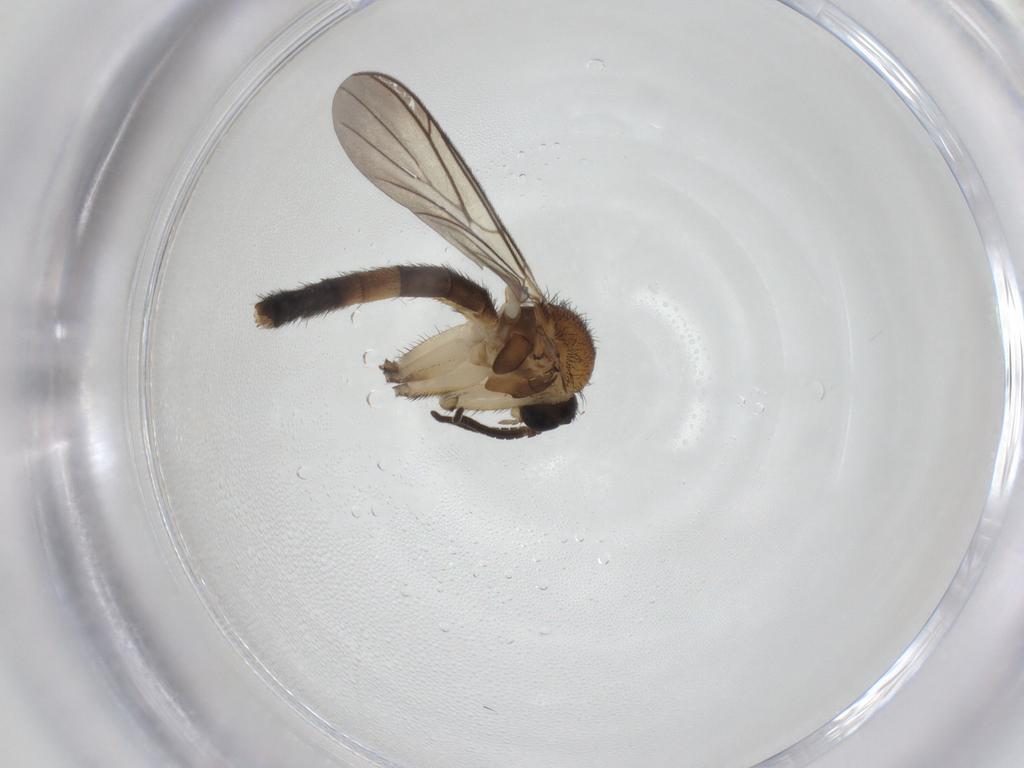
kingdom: Animalia
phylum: Arthropoda
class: Insecta
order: Diptera
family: Keroplatidae
